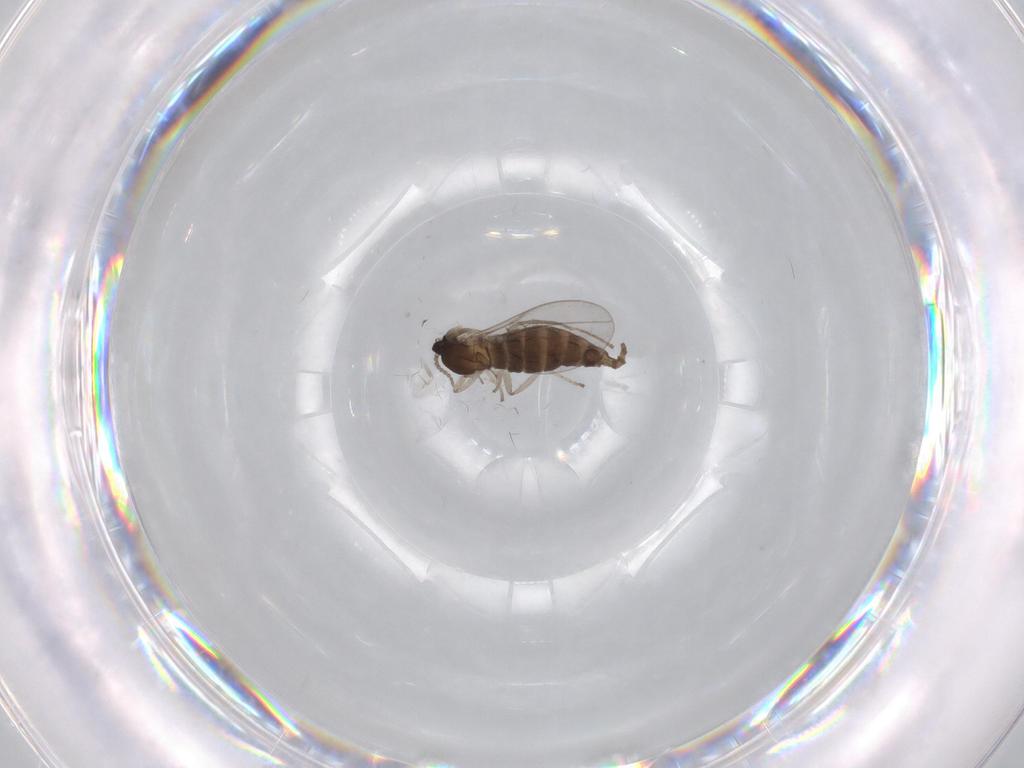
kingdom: Animalia
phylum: Arthropoda
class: Insecta
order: Diptera
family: Cecidomyiidae
